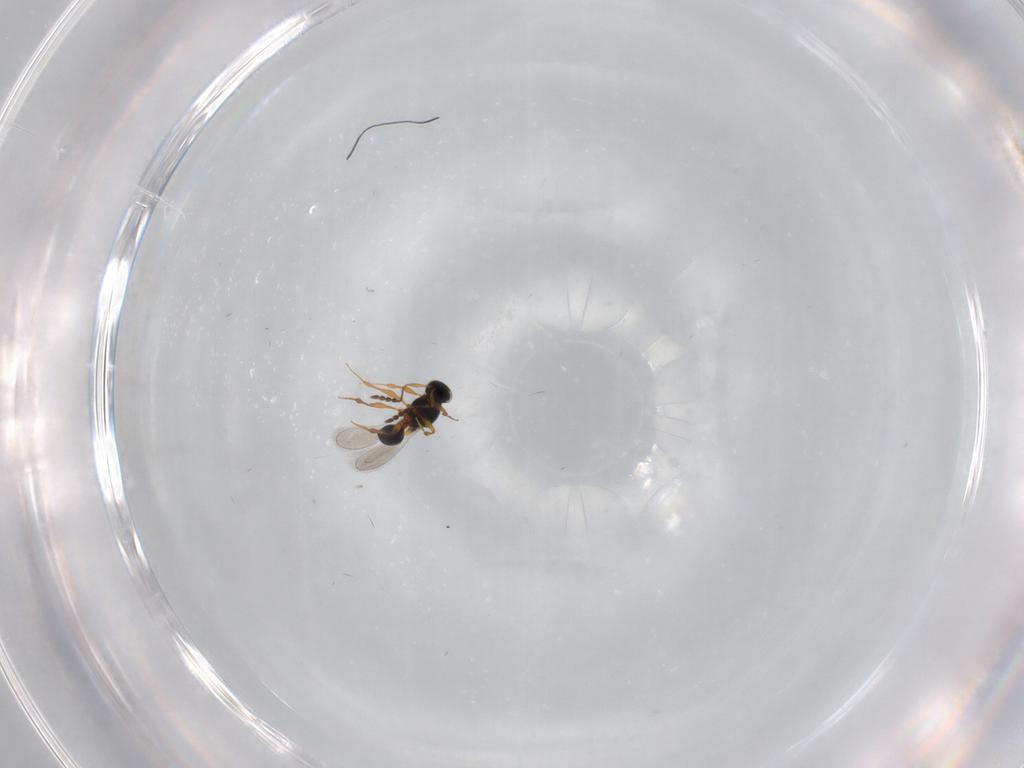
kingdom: Animalia
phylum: Arthropoda
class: Insecta
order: Hymenoptera
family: Platygastridae
